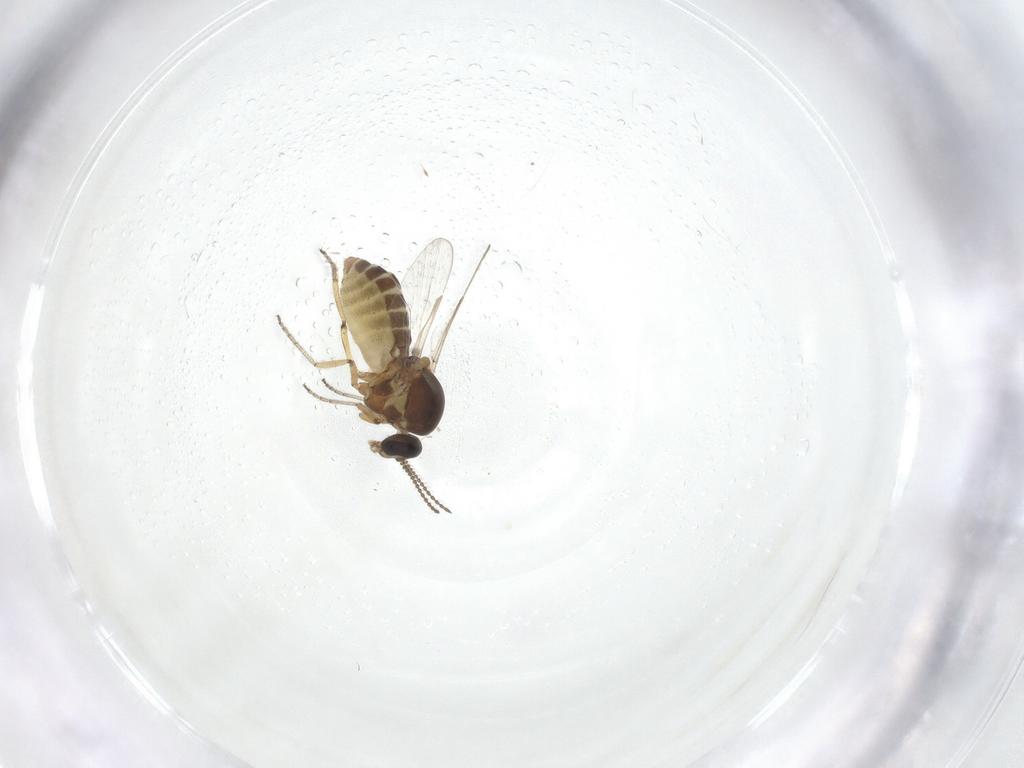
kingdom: Animalia
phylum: Arthropoda
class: Insecta
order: Diptera
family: Ceratopogonidae
